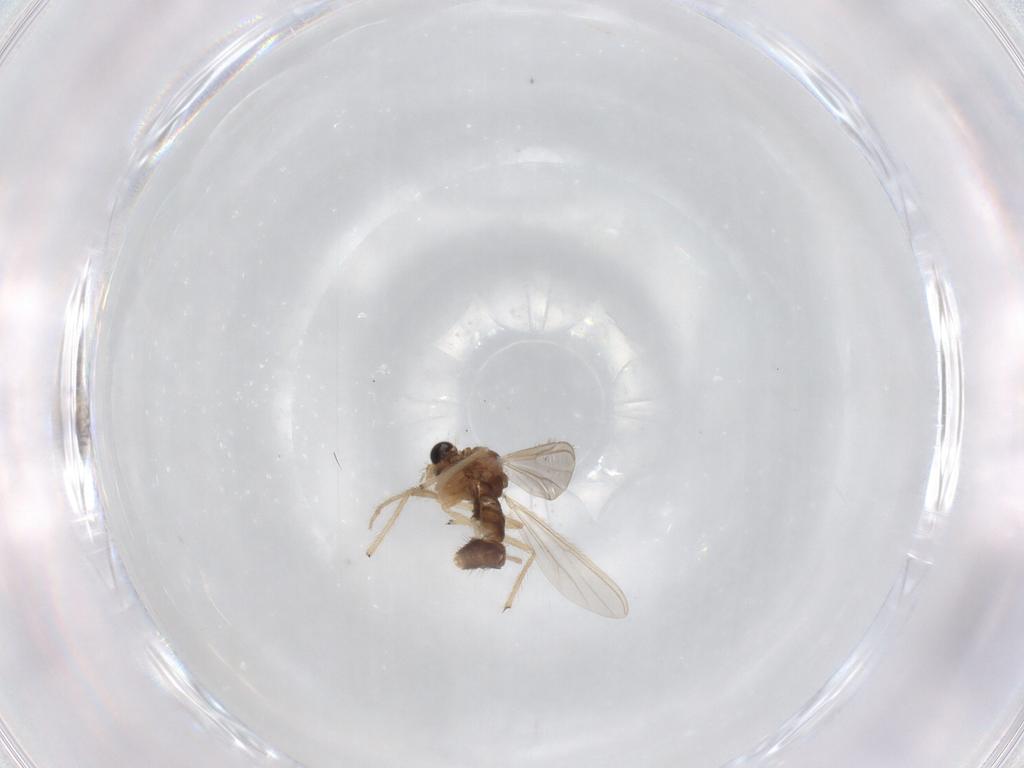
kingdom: Animalia
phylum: Arthropoda
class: Insecta
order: Diptera
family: Chironomidae
